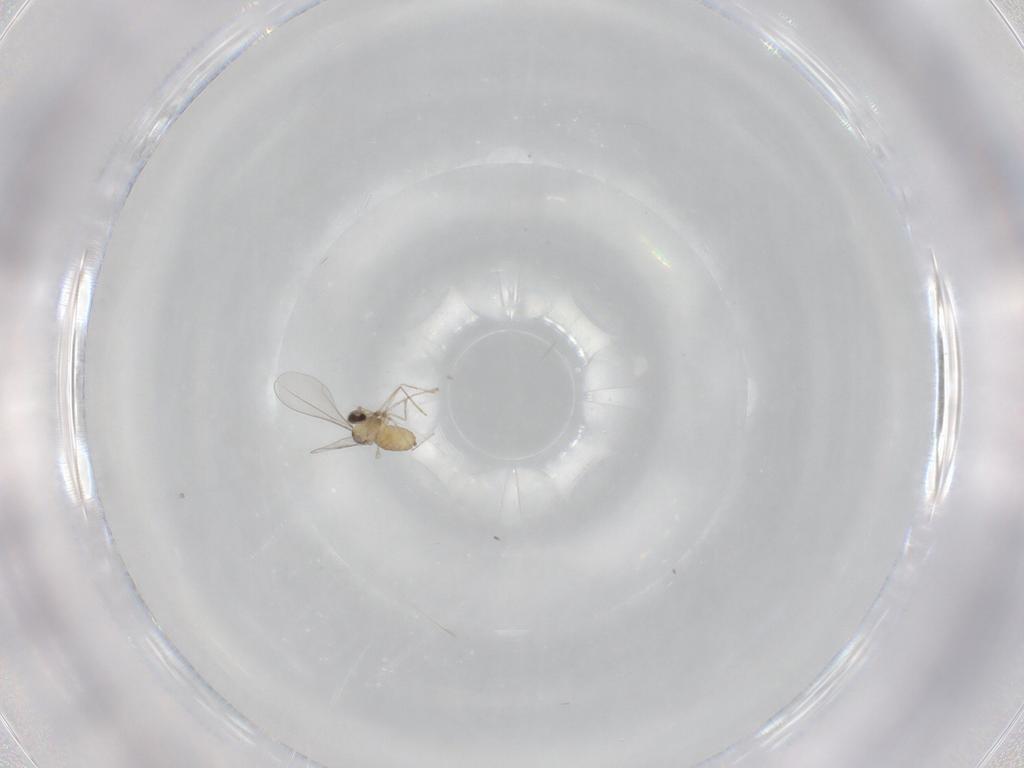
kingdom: Animalia
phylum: Arthropoda
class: Insecta
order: Diptera
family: Cecidomyiidae
